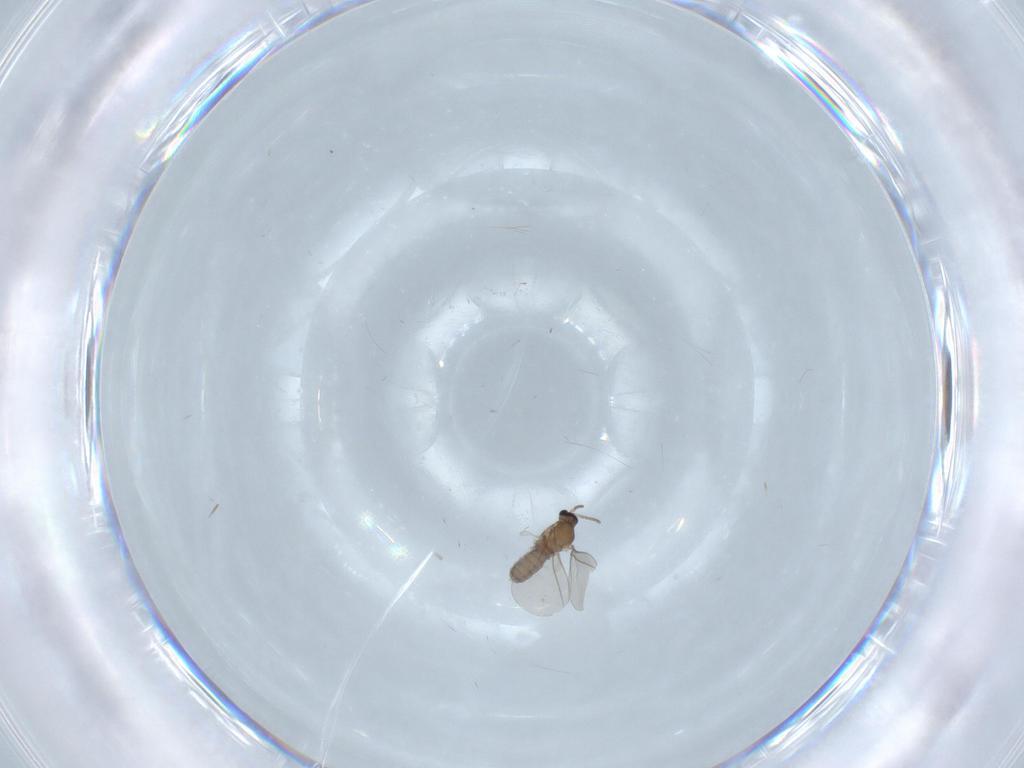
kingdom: Animalia
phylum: Arthropoda
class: Insecta
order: Diptera
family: Cecidomyiidae
